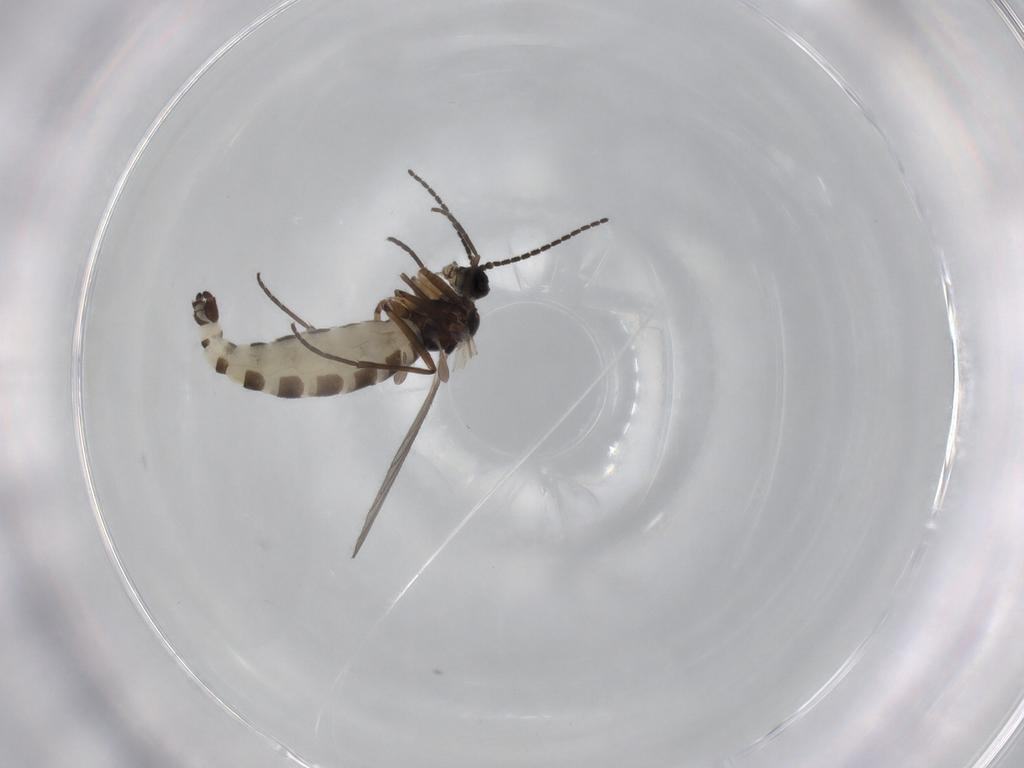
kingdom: Animalia
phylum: Arthropoda
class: Insecta
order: Diptera
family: Sciaridae
